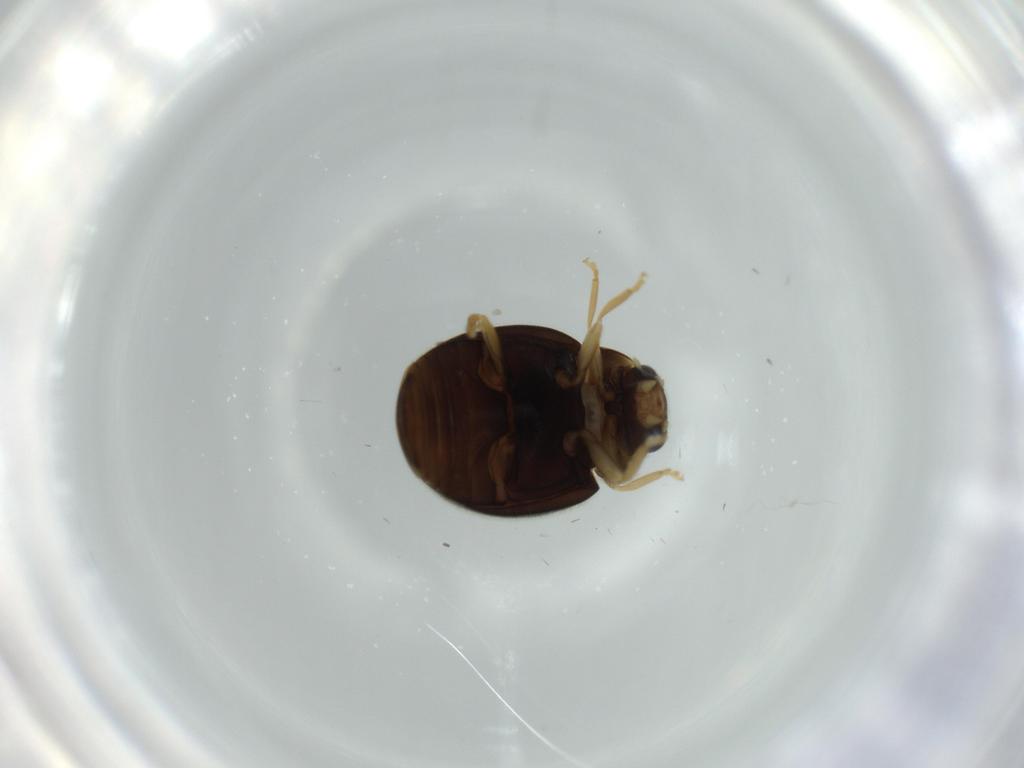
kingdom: Animalia
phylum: Arthropoda
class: Insecta
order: Coleoptera
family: Coccinellidae
